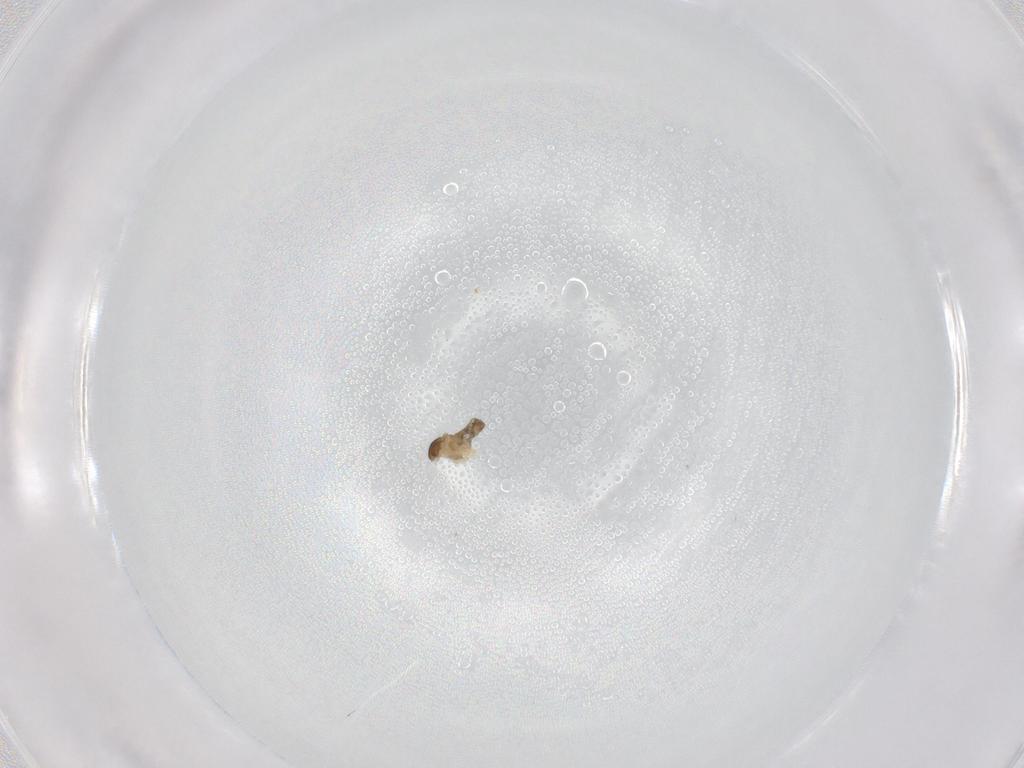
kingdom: Animalia
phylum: Arthropoda
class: Insecta
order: Diptera
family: Cecidomyiidae
